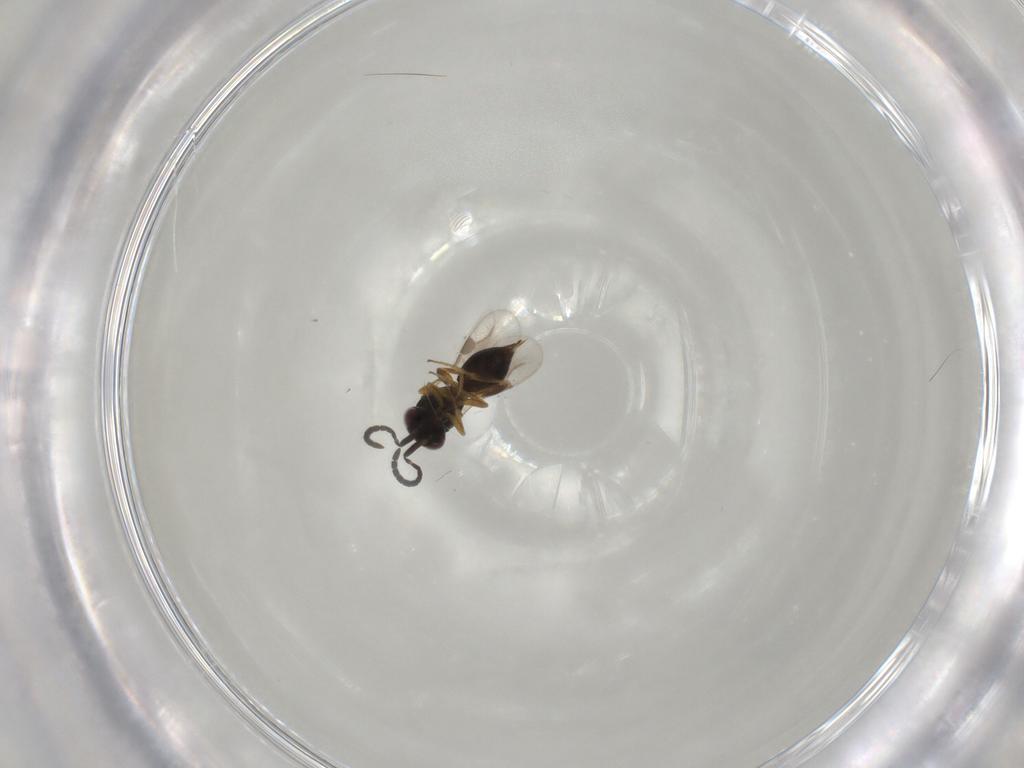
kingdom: Animalia
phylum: Arthropoda
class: Insecta
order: Hymenoptera
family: Megaspilidae
